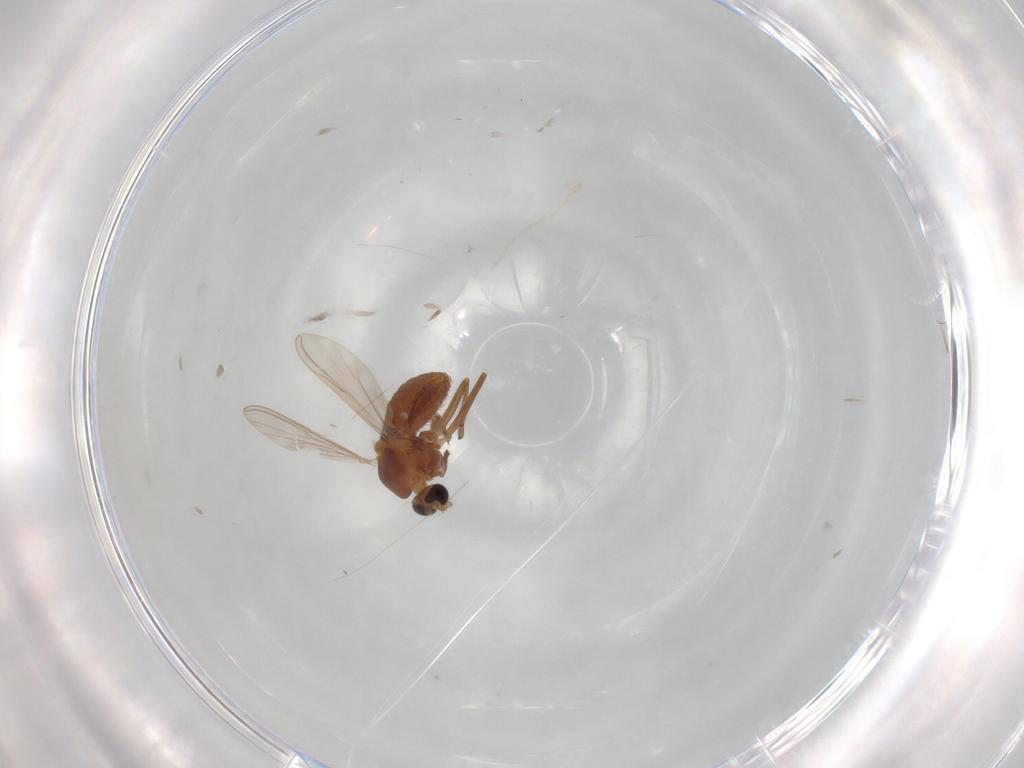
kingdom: Animalia
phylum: Arthropoda
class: Insecta
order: Diptera
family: Chironomidae
